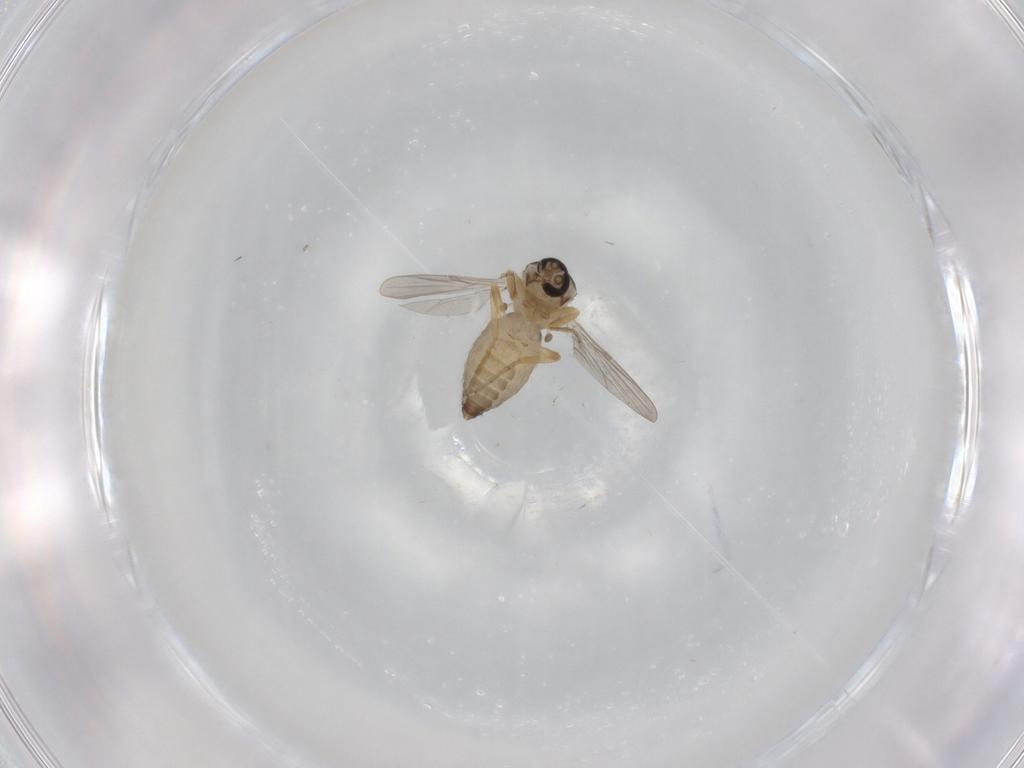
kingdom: Animalia
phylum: Arthropoda
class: Insecta
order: Diptera
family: Ceratopogonidae
